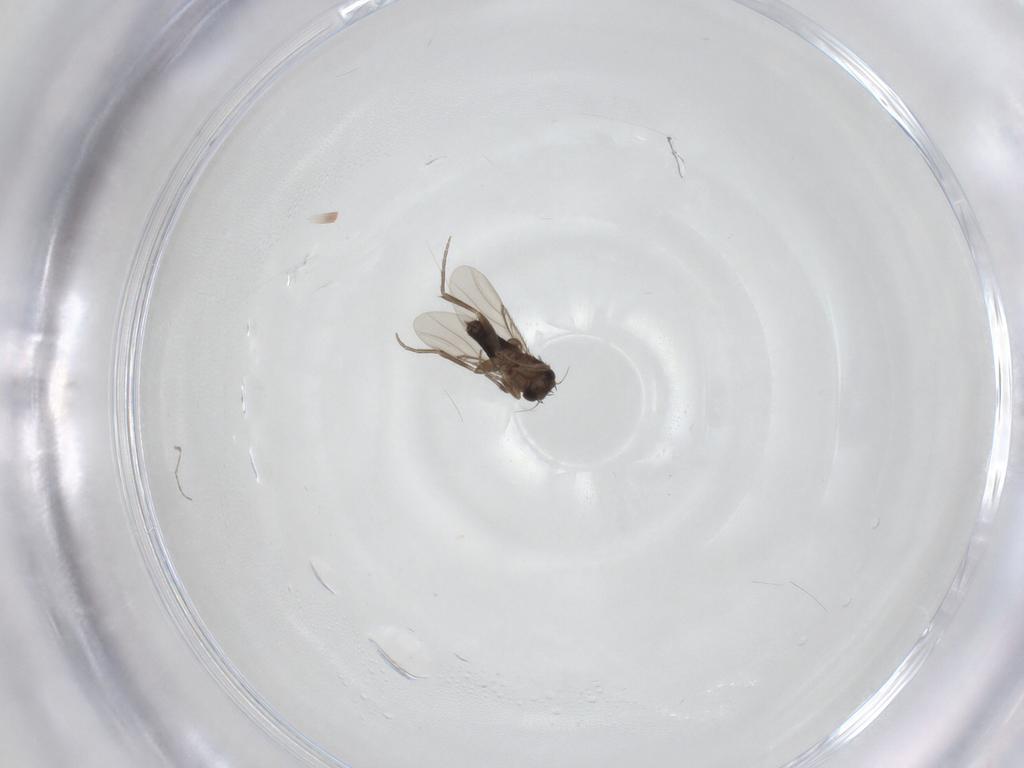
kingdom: Animalia
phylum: Arthropoda
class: Insecta
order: Diptera
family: Phoridae
